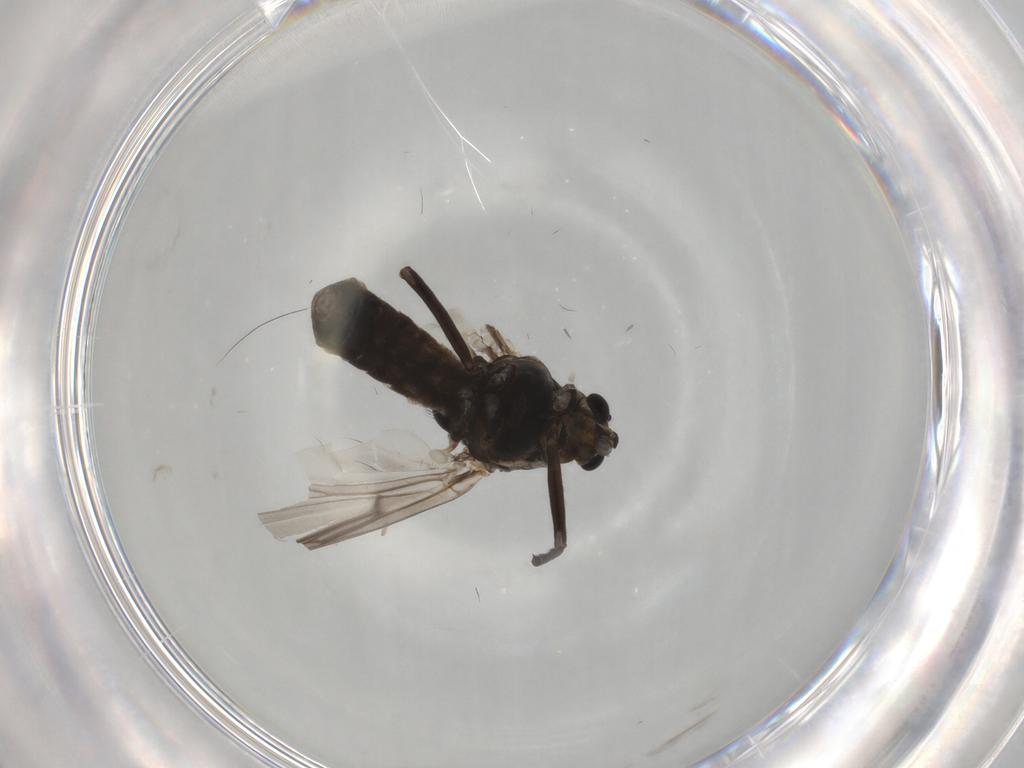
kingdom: Animalia
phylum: Arthropoda
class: Insecta
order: Diptera
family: Chironomidae
